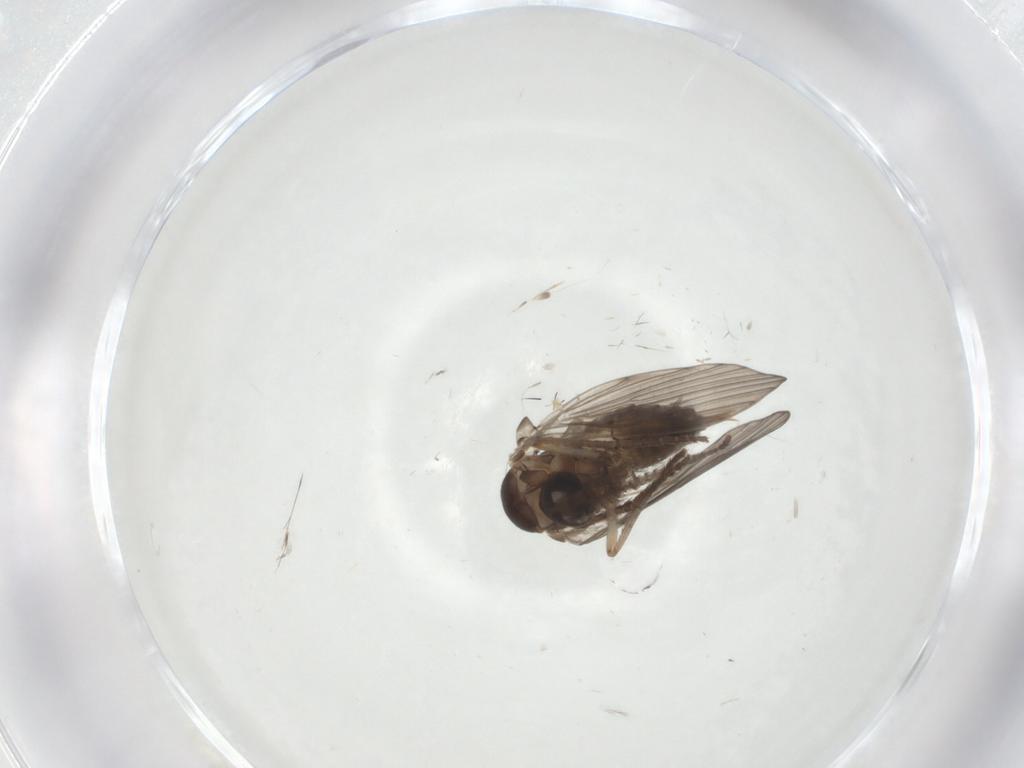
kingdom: Animalia
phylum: Arthropoda
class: Insecta
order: Diptera
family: Psychodidae
